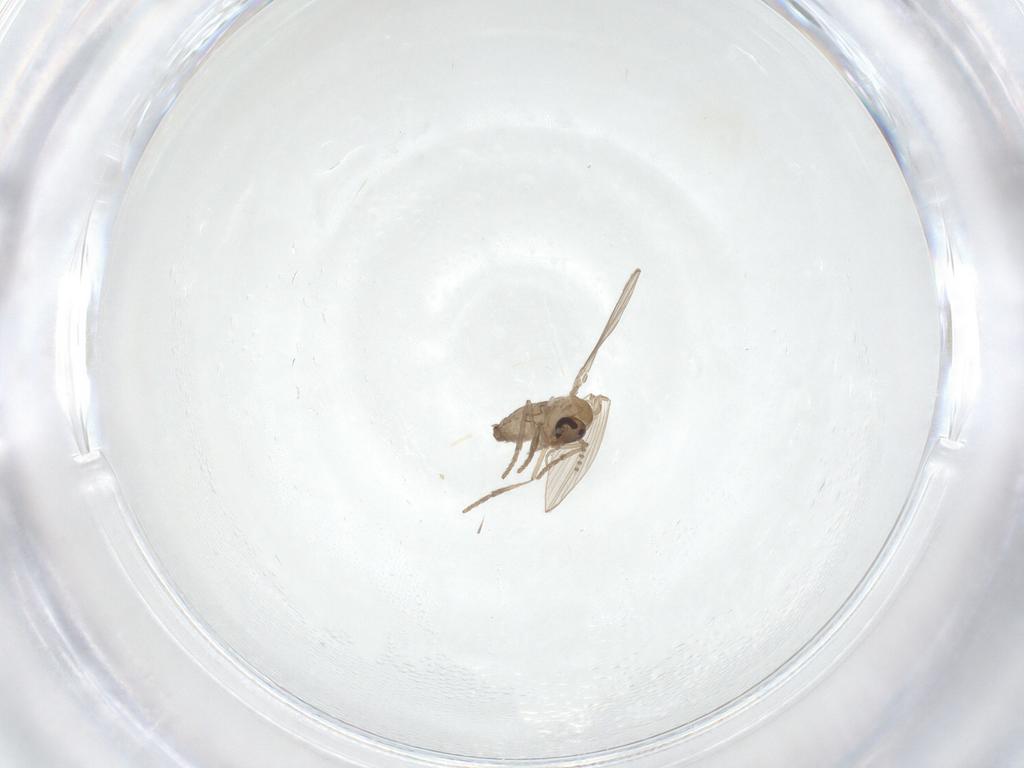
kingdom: Animalia
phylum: Arthropoda
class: Insecta
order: Diptera
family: Psychodidae
